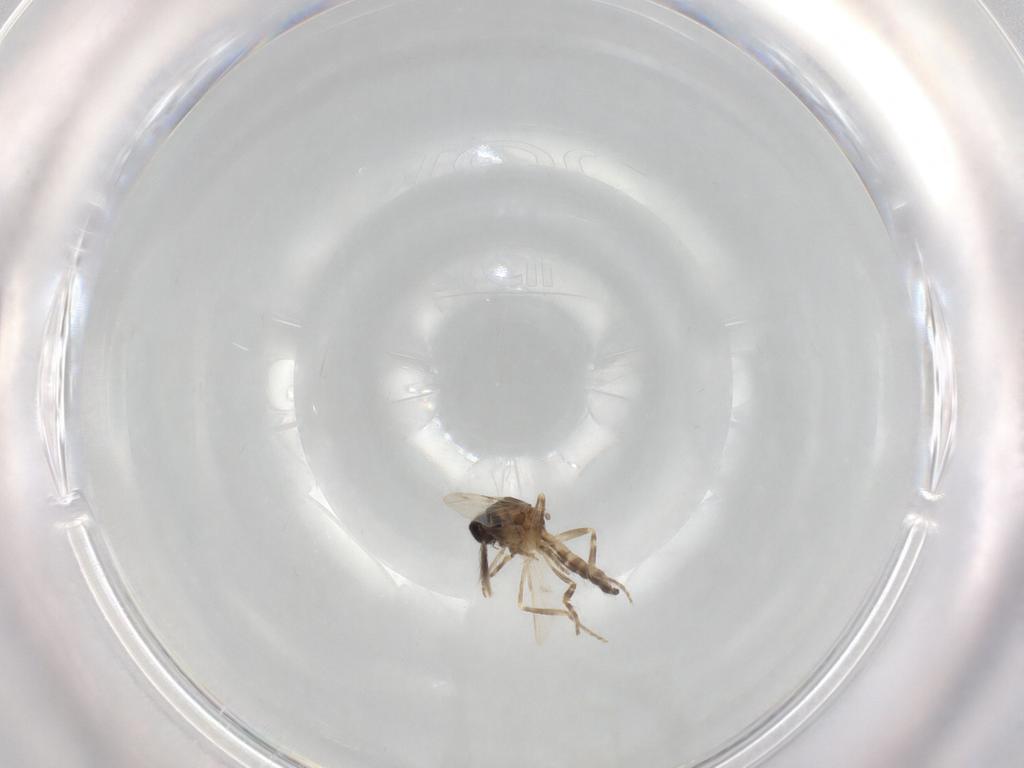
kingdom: Animalia
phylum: Arthropoda
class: Insecta
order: Diptera
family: Ceratopogonidae
